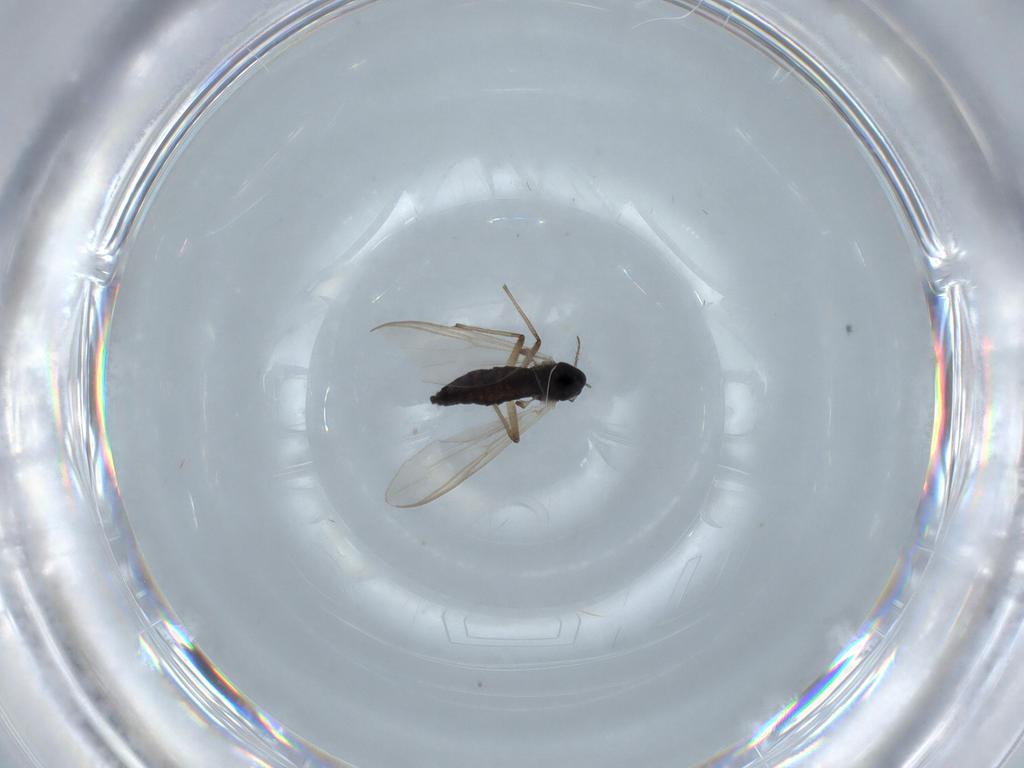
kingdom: Animalia
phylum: Arthropoda
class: Insecta
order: Diptera
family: Chironomidae
